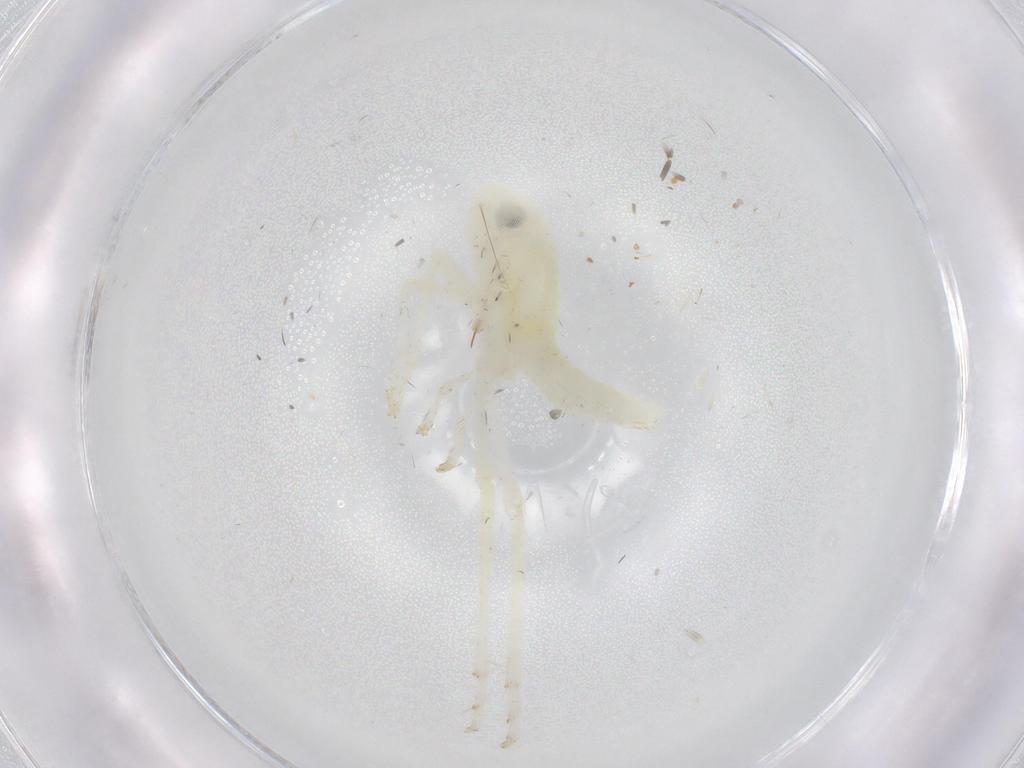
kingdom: Animalia
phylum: Arthropoda
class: Insecta
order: Hemiptera
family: Cicadellidae
